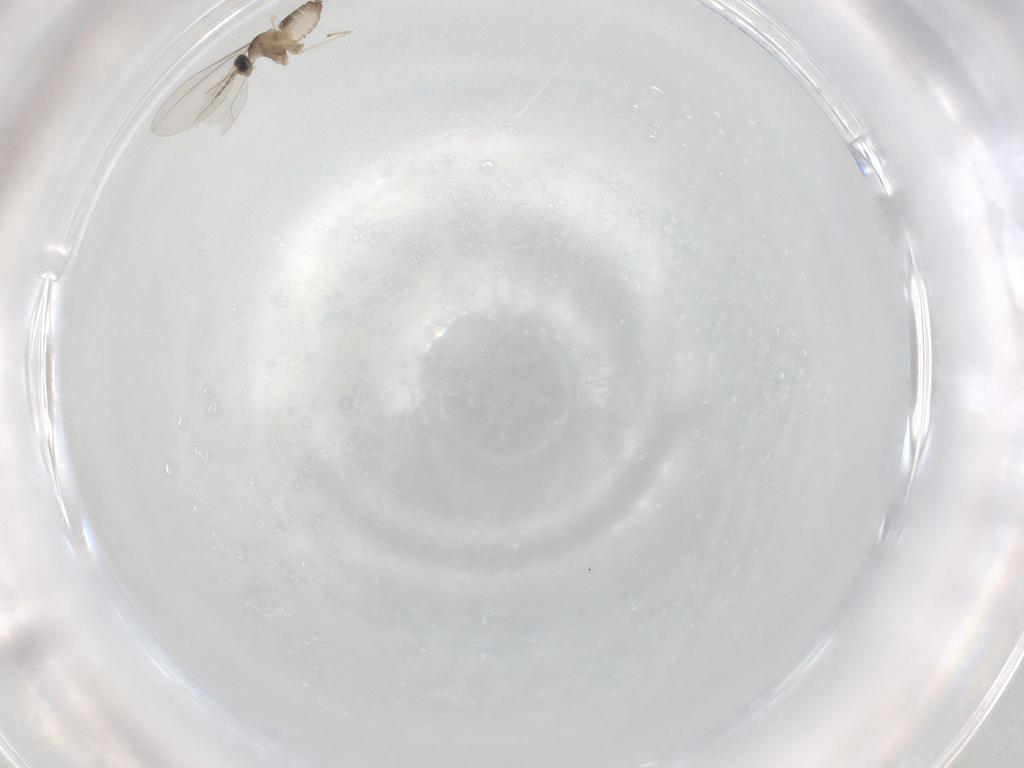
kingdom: Animalia
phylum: Arthropoda
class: Insecta
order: Diptera
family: Cecidomyiidae
